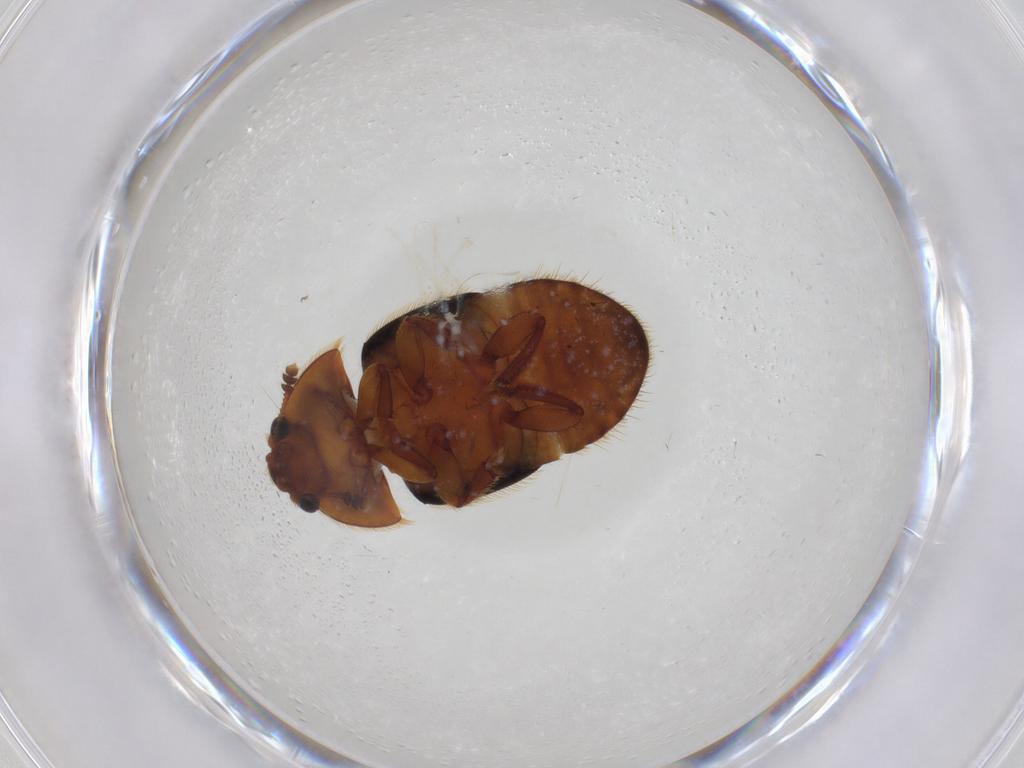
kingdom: Animalia
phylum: Arthropoda
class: Insecta
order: Coleoptera
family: Nitidulidae
